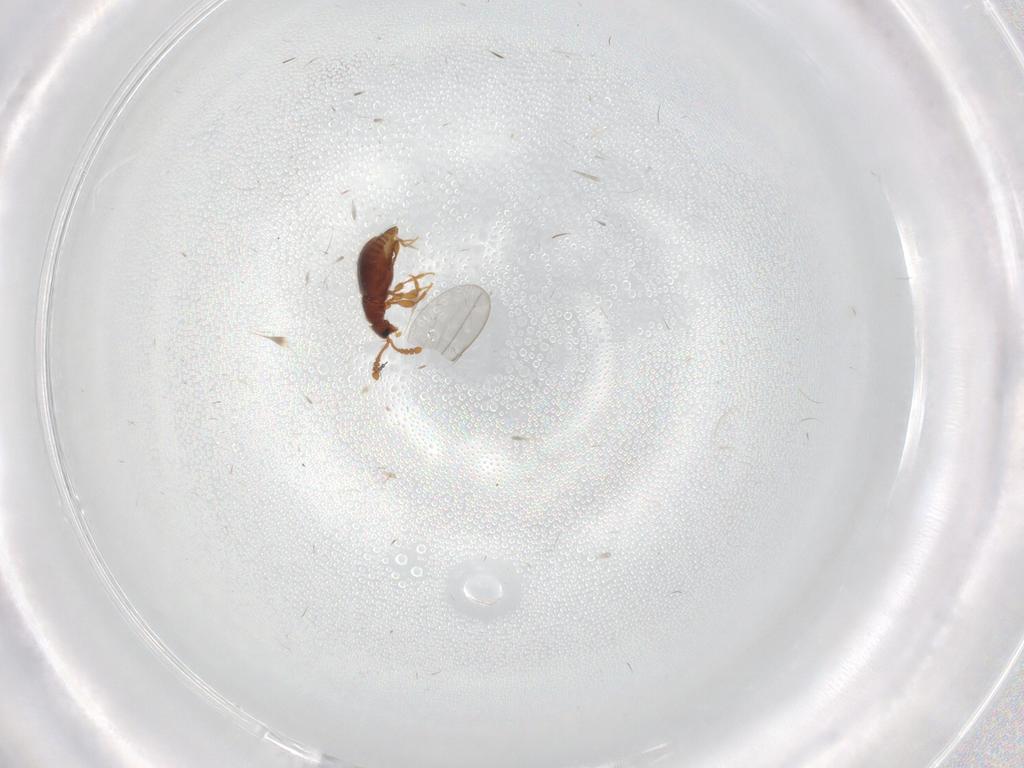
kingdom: Animalia
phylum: Arthropoda
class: Insecta
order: Coleoptera
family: Staphylinidae
